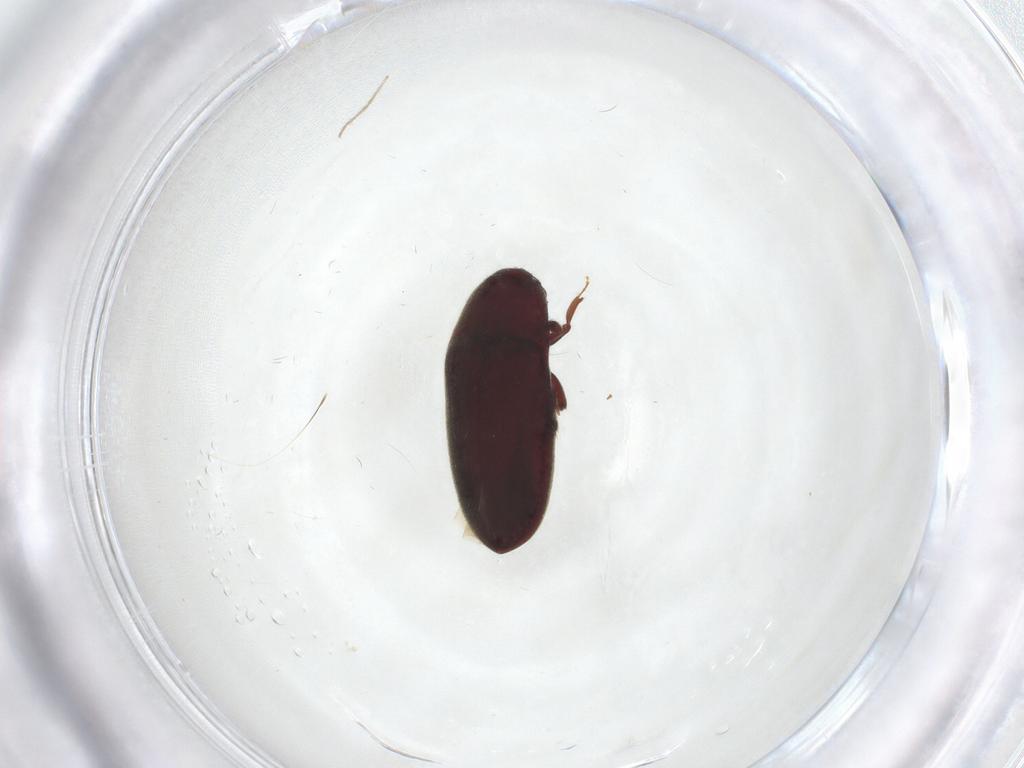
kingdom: Animalia
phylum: Arthropoda
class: Insecta
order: Coleoptera
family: Throscidae
